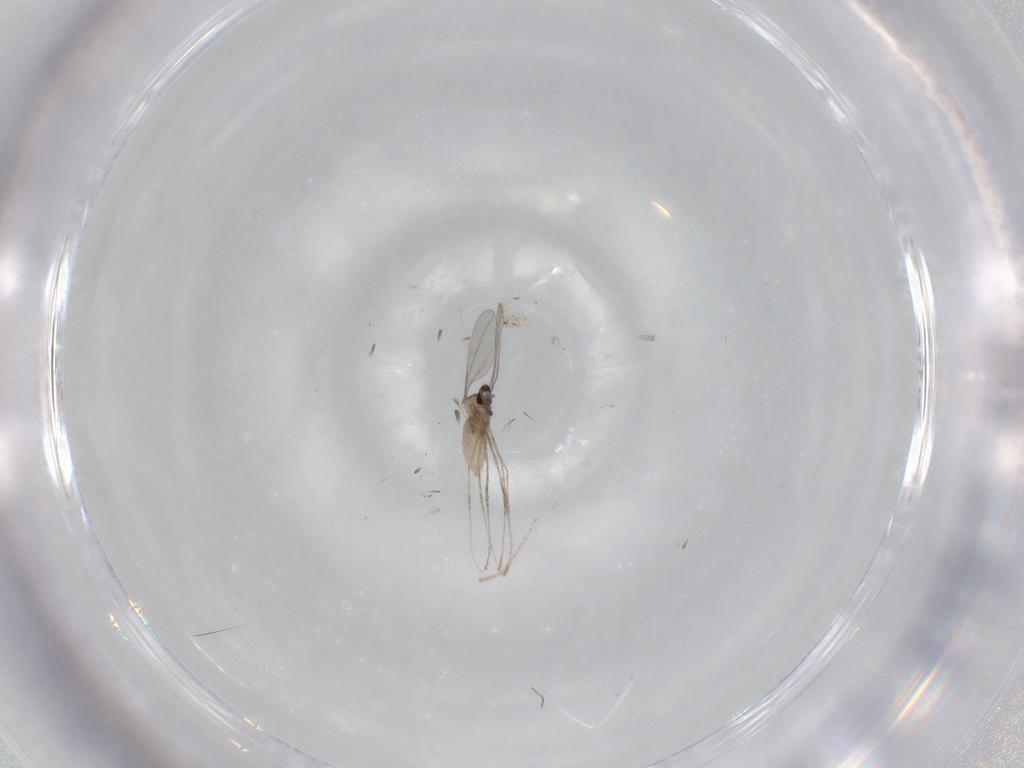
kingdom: Animalia
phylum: Arthropoda
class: Insecta
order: Diptera
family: Cecidomyiidae
